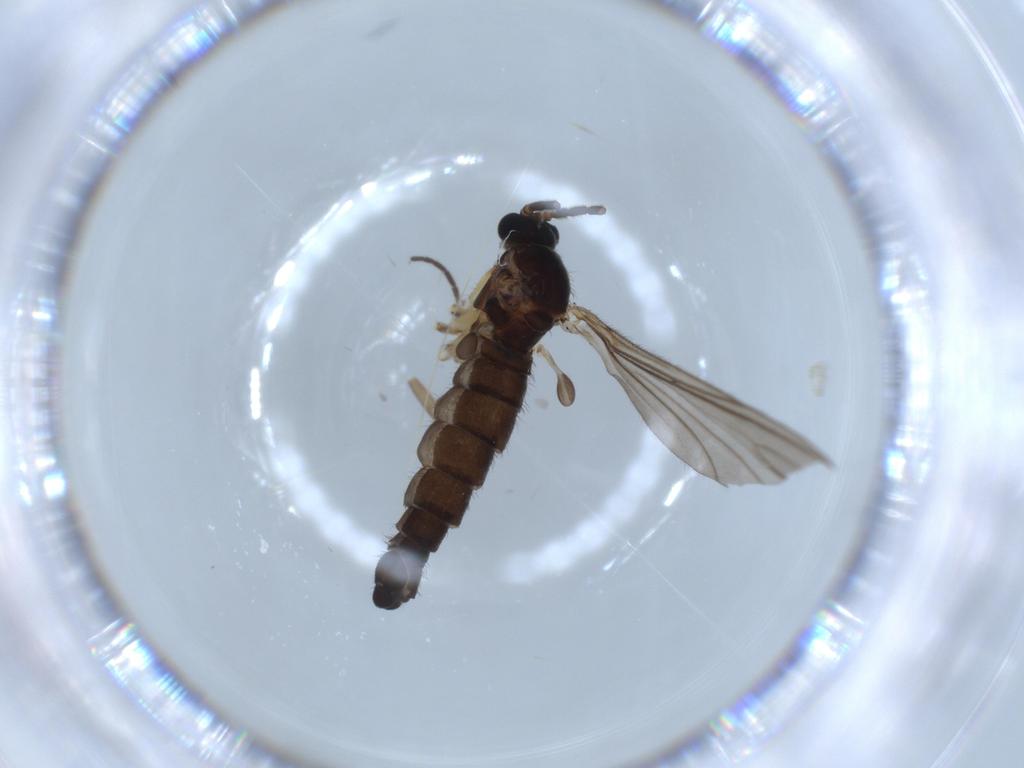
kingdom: Animalia
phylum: Arthropoda
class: Insecta
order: Diptera
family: Sciaridae
